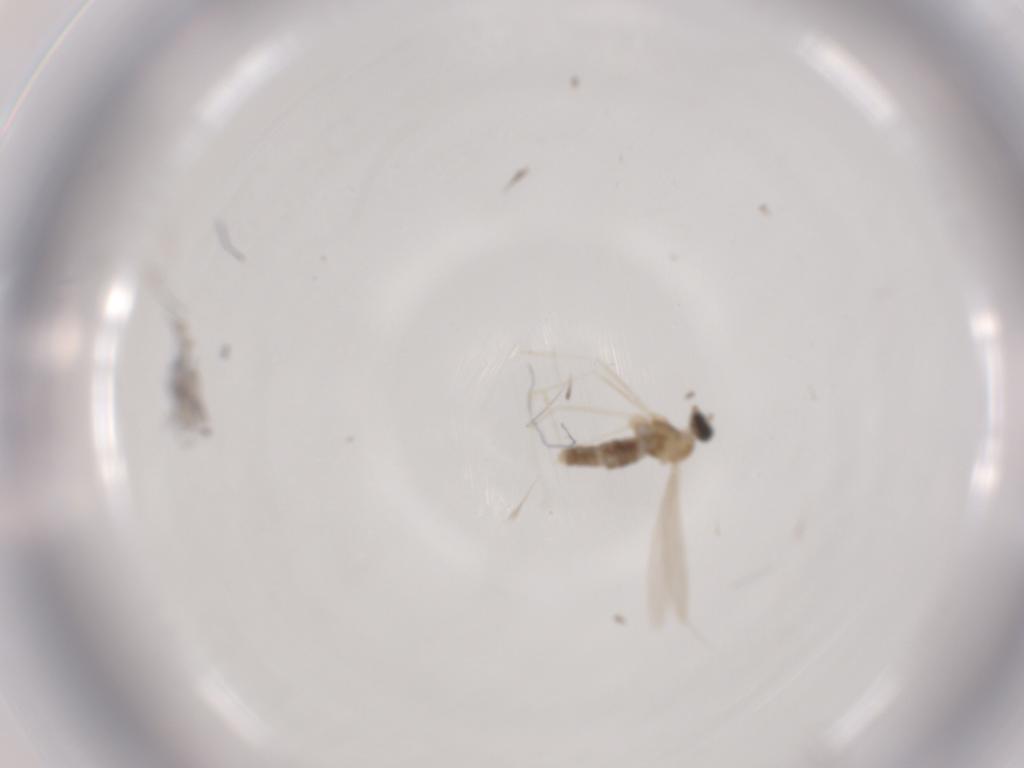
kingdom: Animalia
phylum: Arthropoda
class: Insecta
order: Diptera
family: Cecidomyiidae
